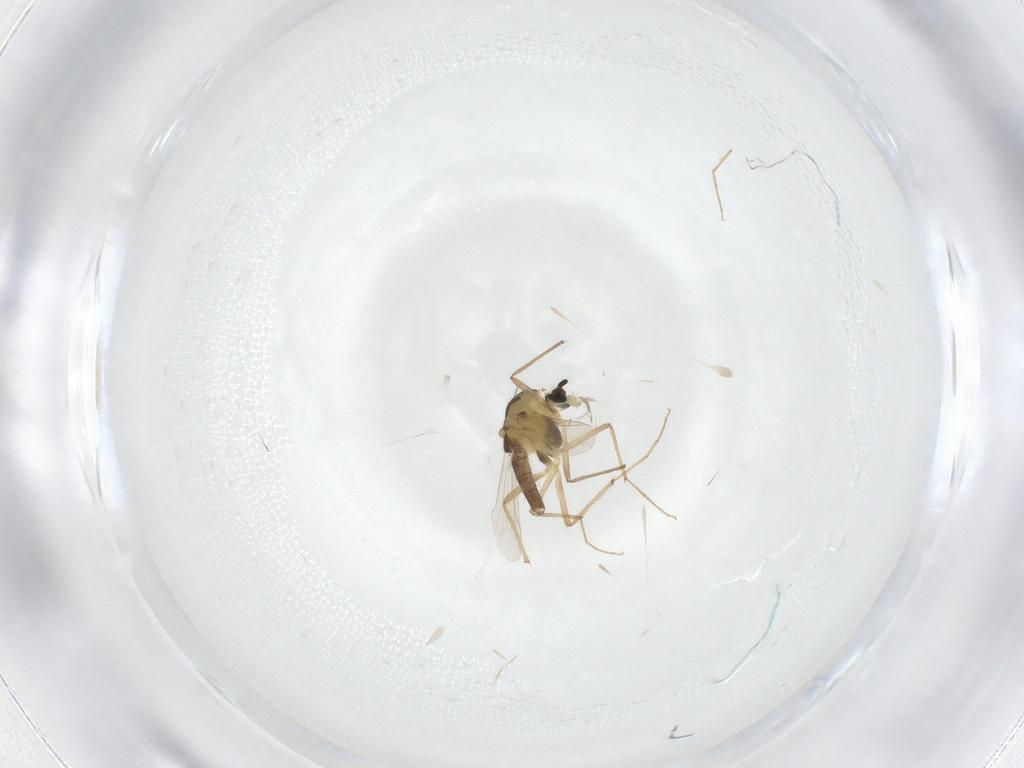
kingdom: Animalia
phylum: Arthropoda
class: Insecta
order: Diptera
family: Chironomidae
